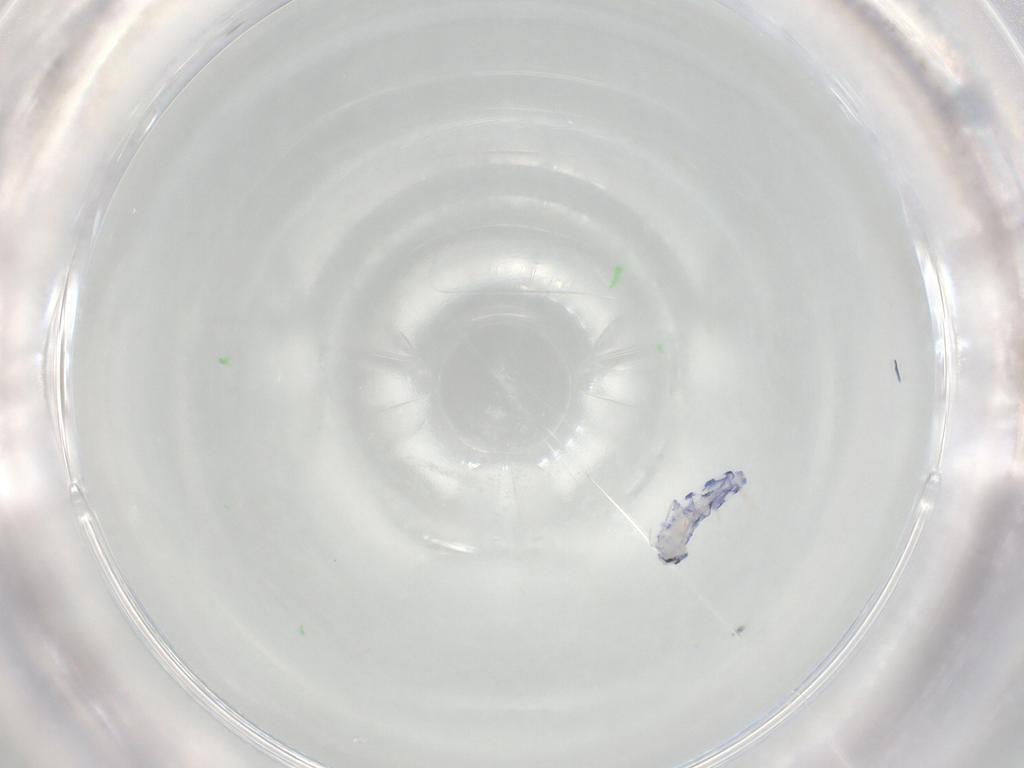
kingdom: Animalia
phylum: Arthropoda
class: Collembola
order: Entomobryomorpha
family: Entomobryidae
